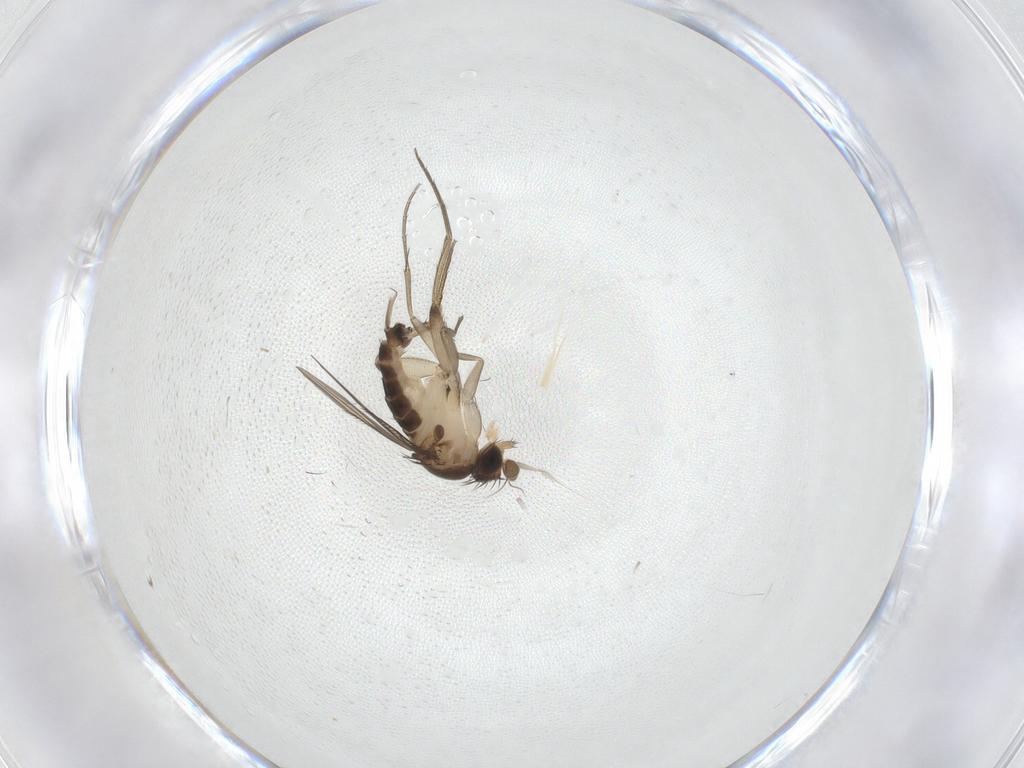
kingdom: Animalia
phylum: Arthropoda
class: Insecta
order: Diptera
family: Phoridae
